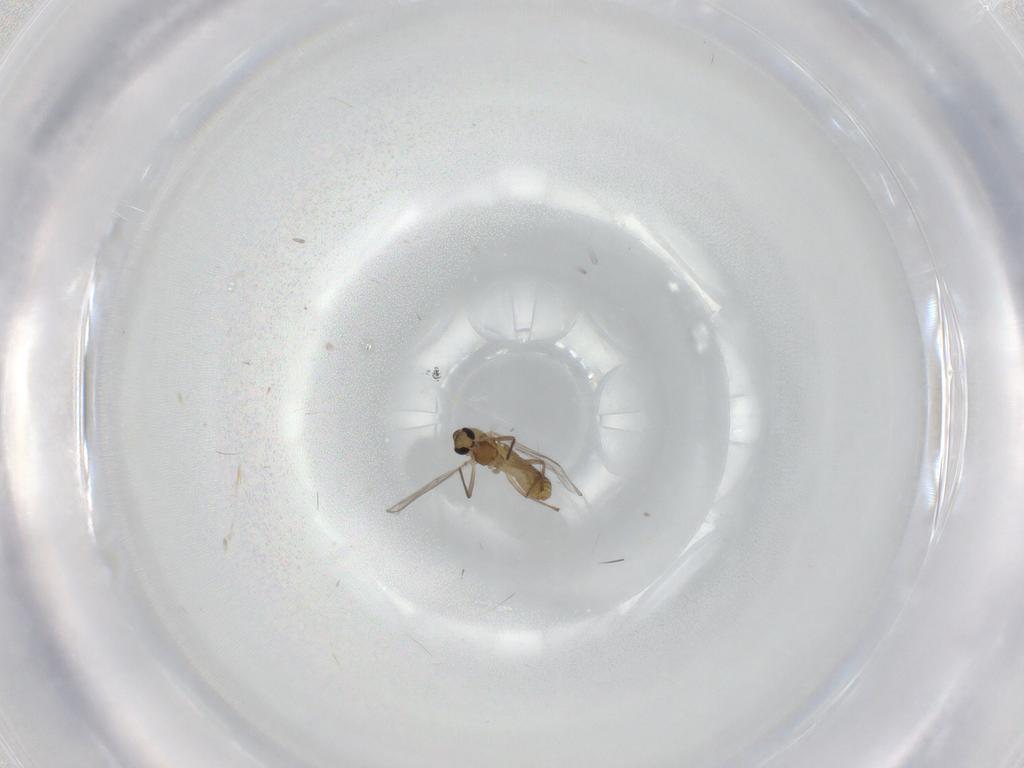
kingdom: Animalia
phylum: Arthropoda
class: Insecta
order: Diptera
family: Chironomidae
